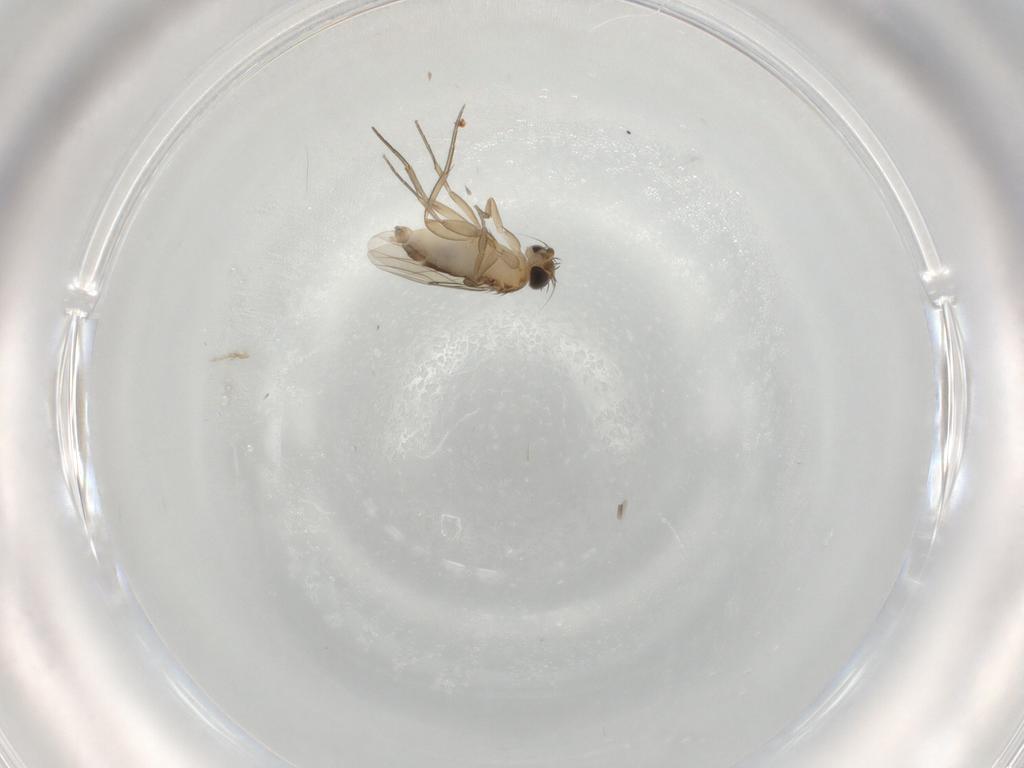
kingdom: Animalia
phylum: Arthropoda
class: Insecta
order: Diptera
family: Phoridae
